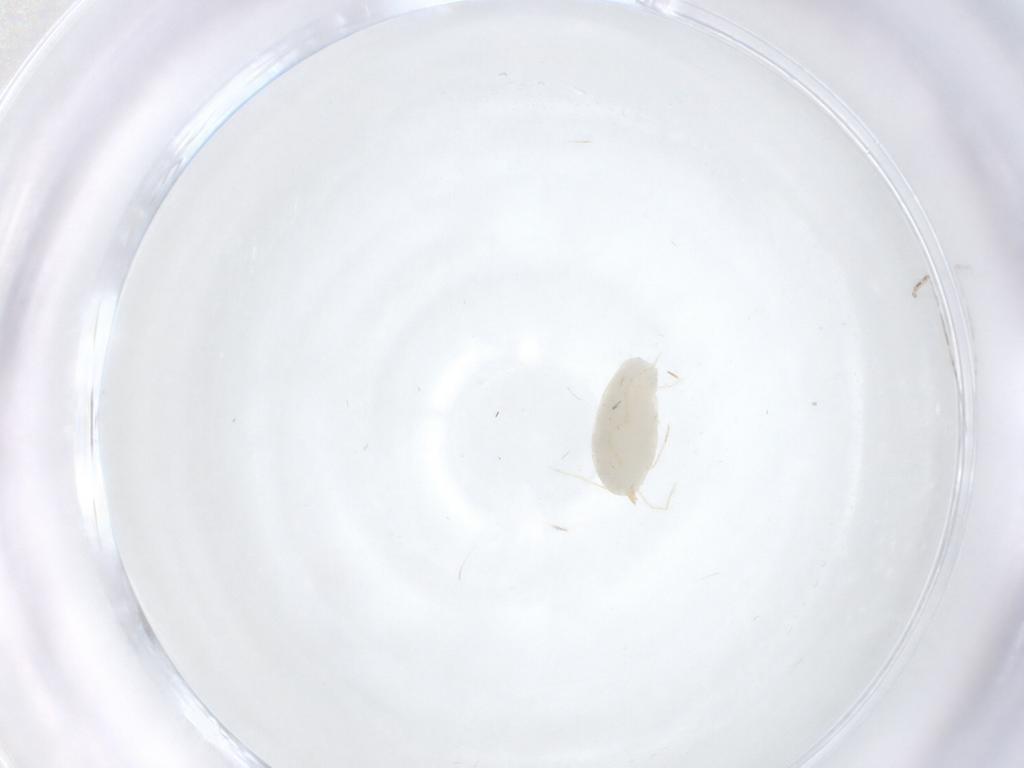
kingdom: Animalia
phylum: Arthropoda
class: Arachnida
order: Trombidiformes
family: Erythraeidae
